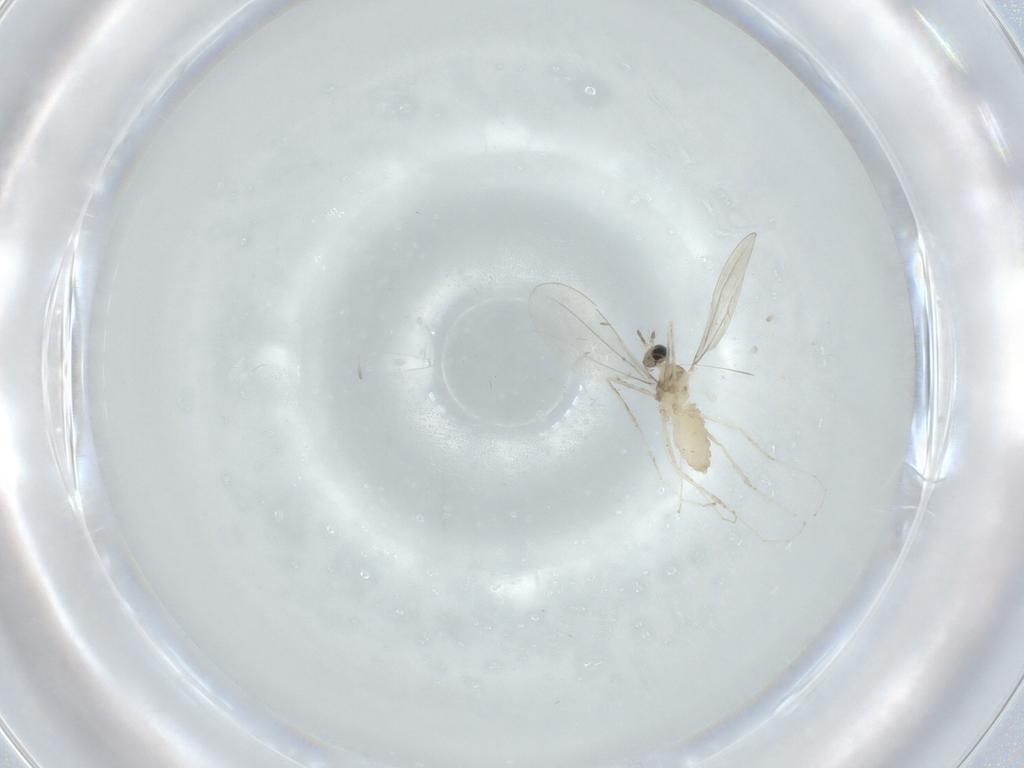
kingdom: Animalia
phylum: Arthropoda
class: Insecta
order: Diptera
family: Cecidomyiidae
